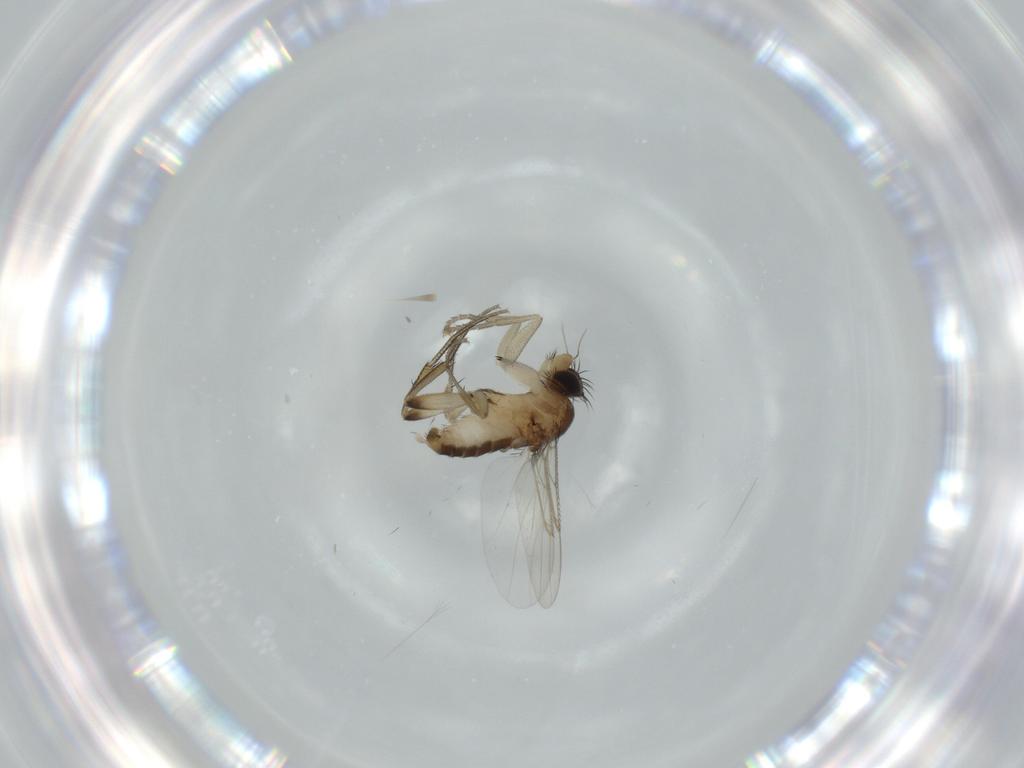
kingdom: Animalia
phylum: Arthropoda
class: Insecta
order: Diptera
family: Phoridae
